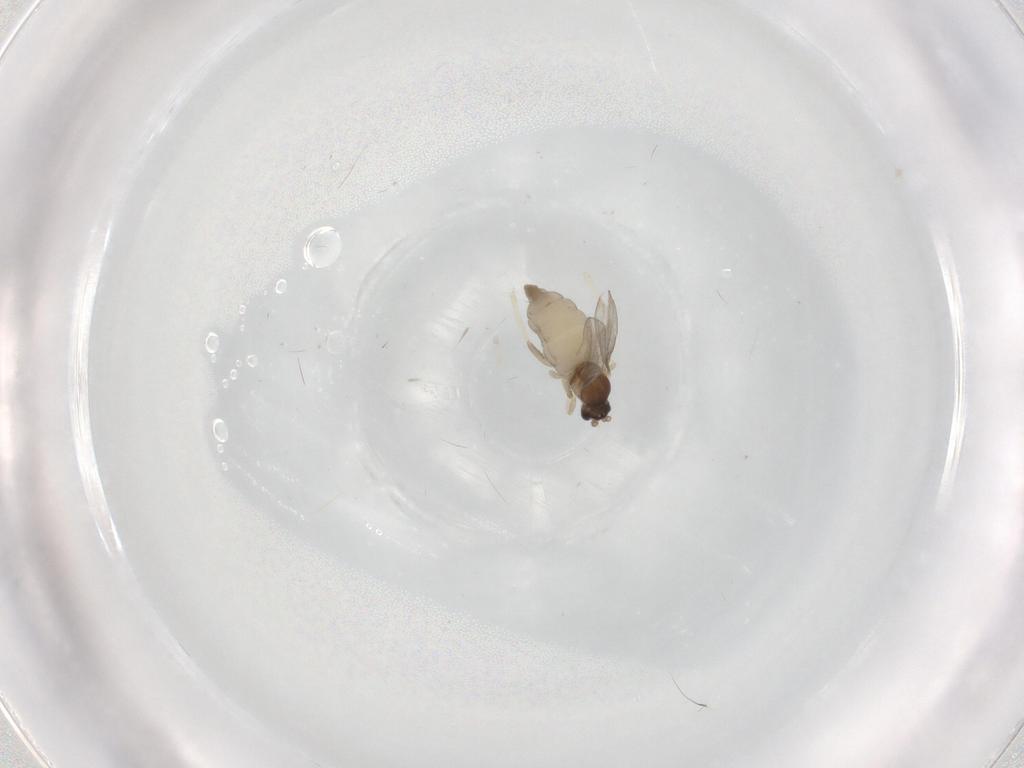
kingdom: Animalia
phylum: Arthropoda
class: Insecta
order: Diptera
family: Cecidomyiidae
